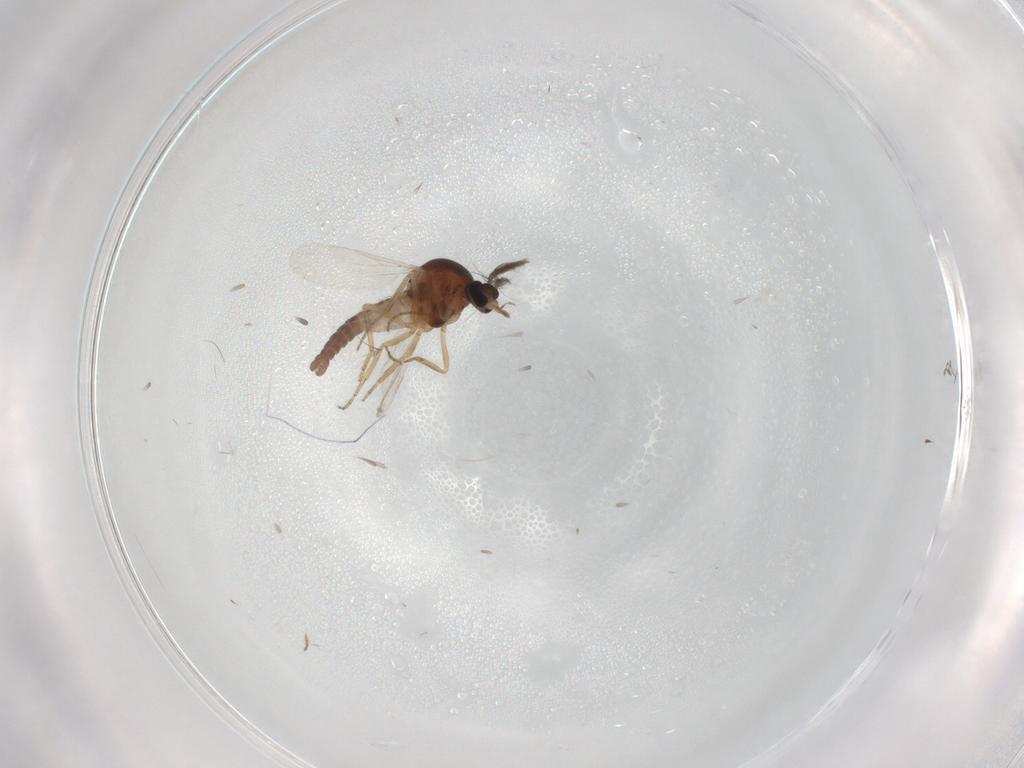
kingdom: Animalia
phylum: Arthropoda
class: Insecta
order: Diptera
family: Ceratopogonidae
